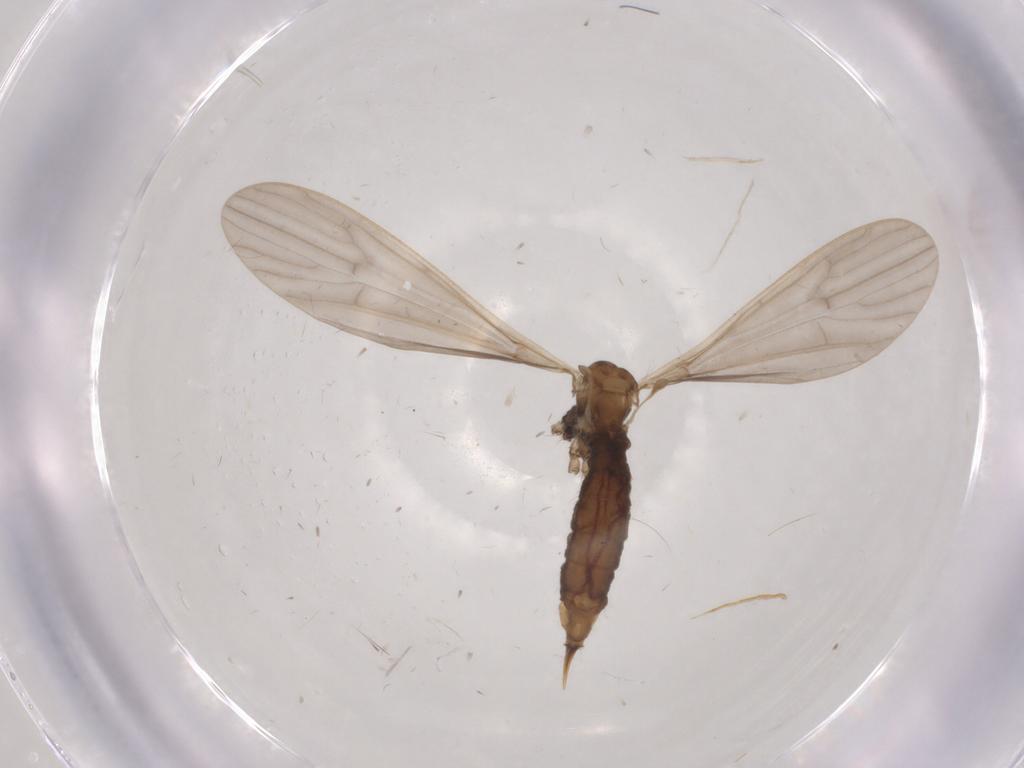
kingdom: Animalia
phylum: Arthropoda
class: Insecta
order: Diptera
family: Limoniidae
